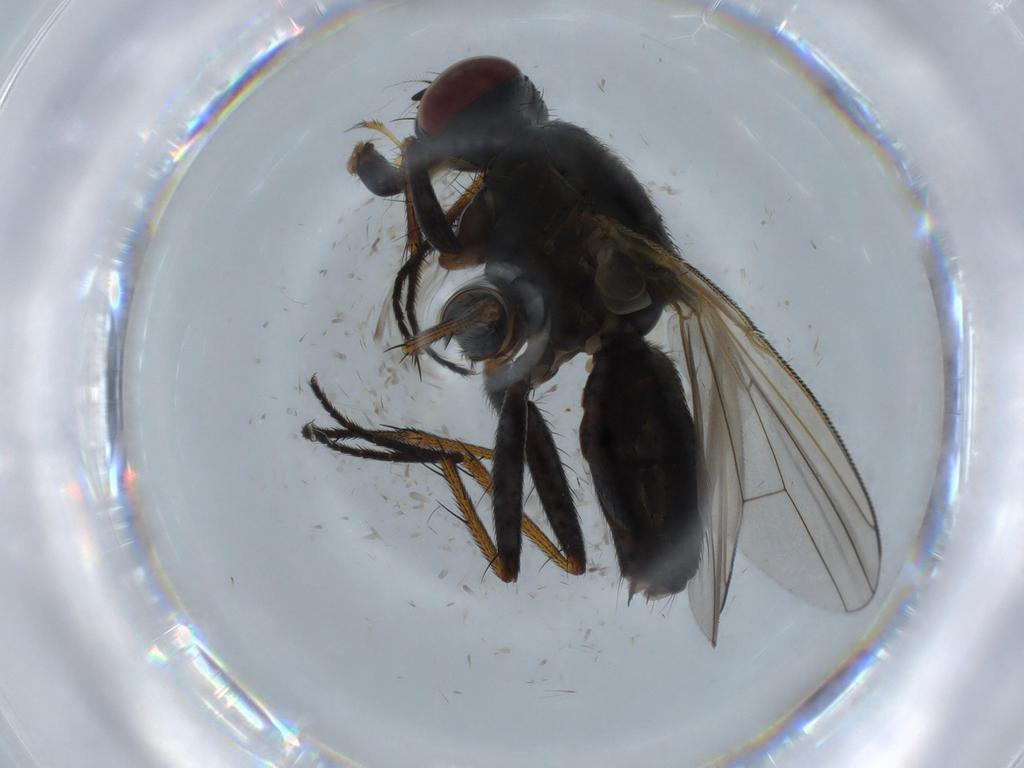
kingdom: Animalia
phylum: Arthropoda
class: Insecta
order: Diptera
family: Muscidae
